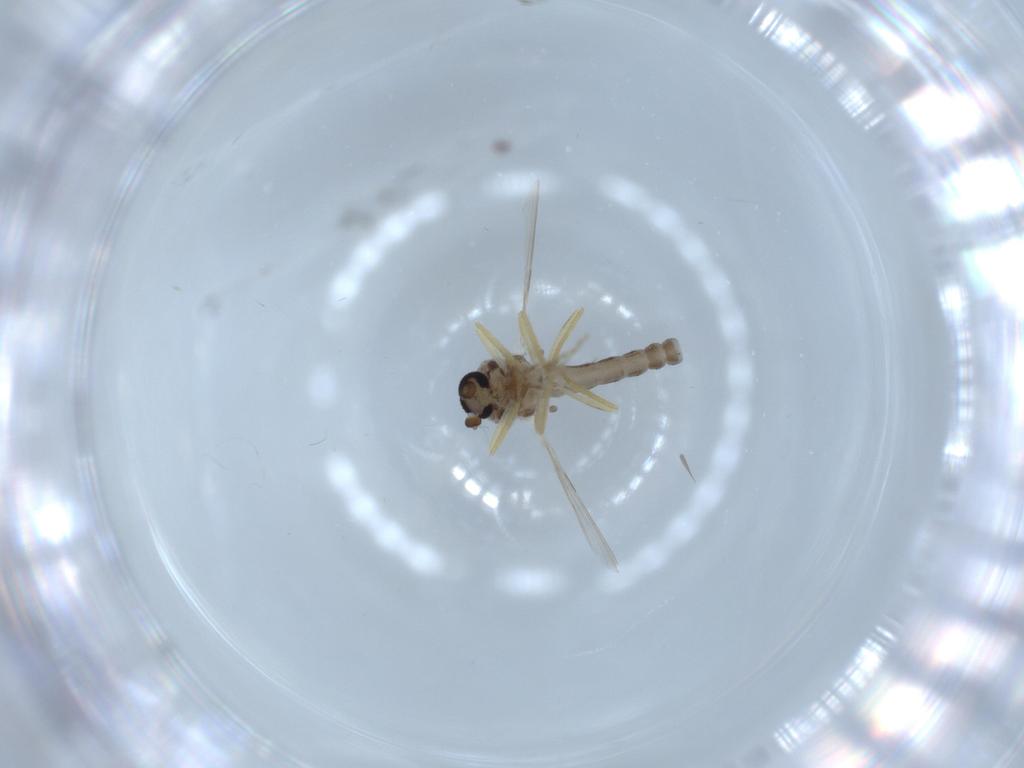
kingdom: Animalia
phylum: Arthropoda
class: Insecta
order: Diptera
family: Ceratopogonidae
